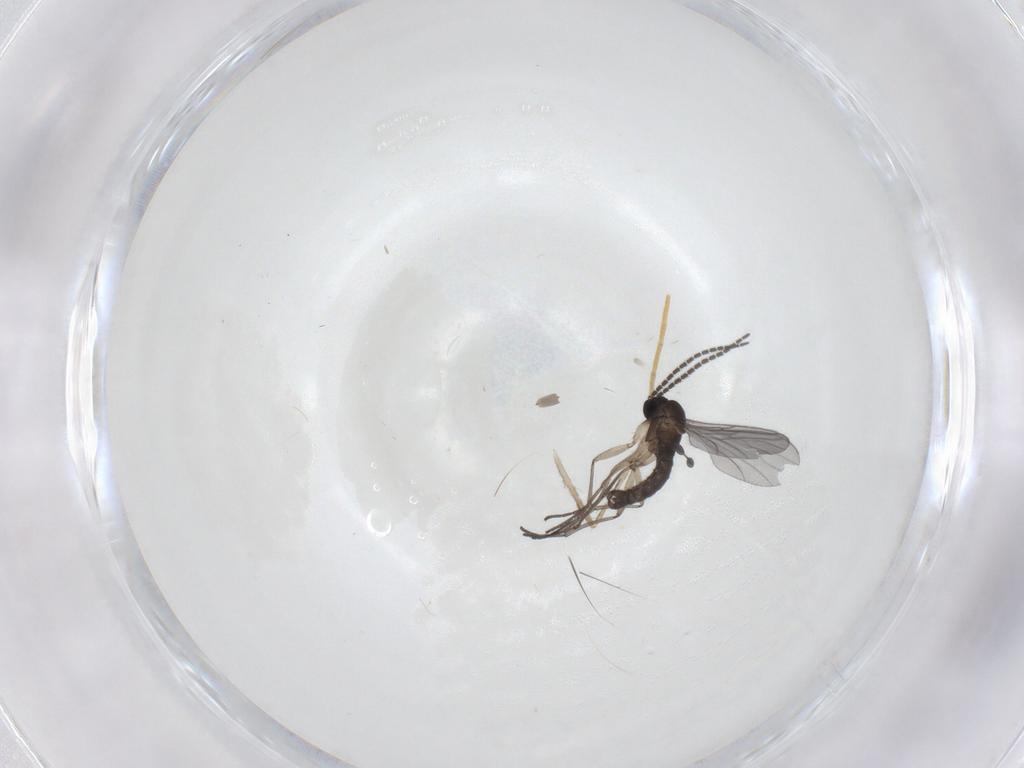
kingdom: Animalia
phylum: Arthropoda
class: Insecta
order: Diptera
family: Sciaridae
